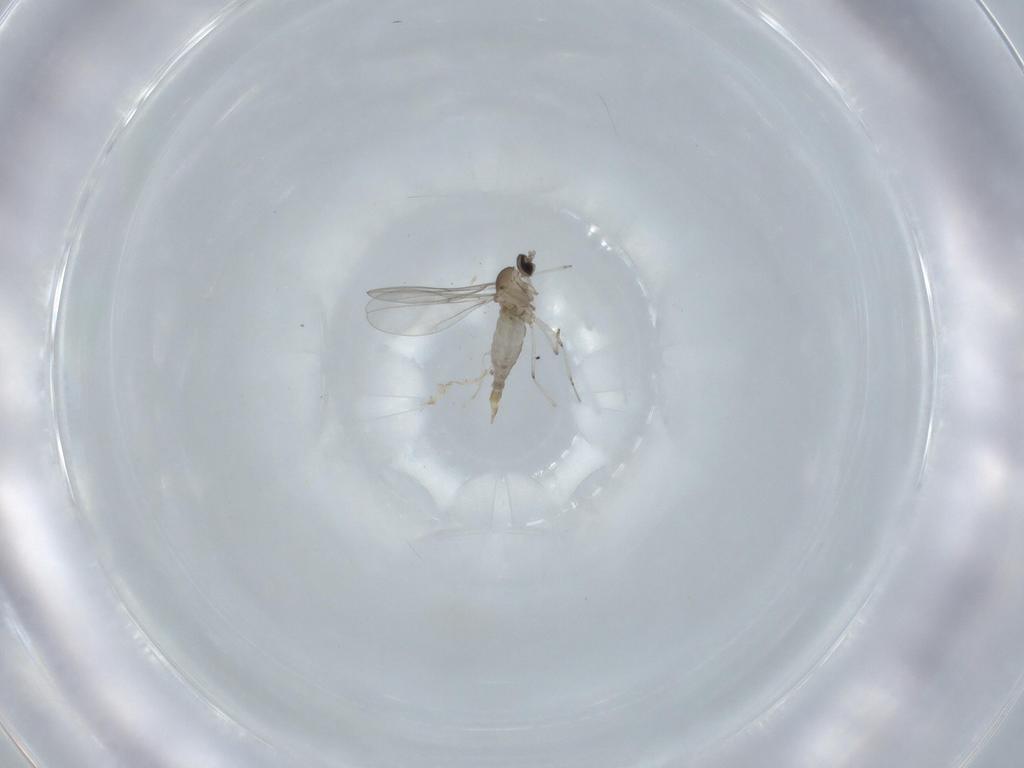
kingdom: Animalia
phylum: Arthropoda
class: Insecta
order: Diptera
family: Cecidomyiidae
